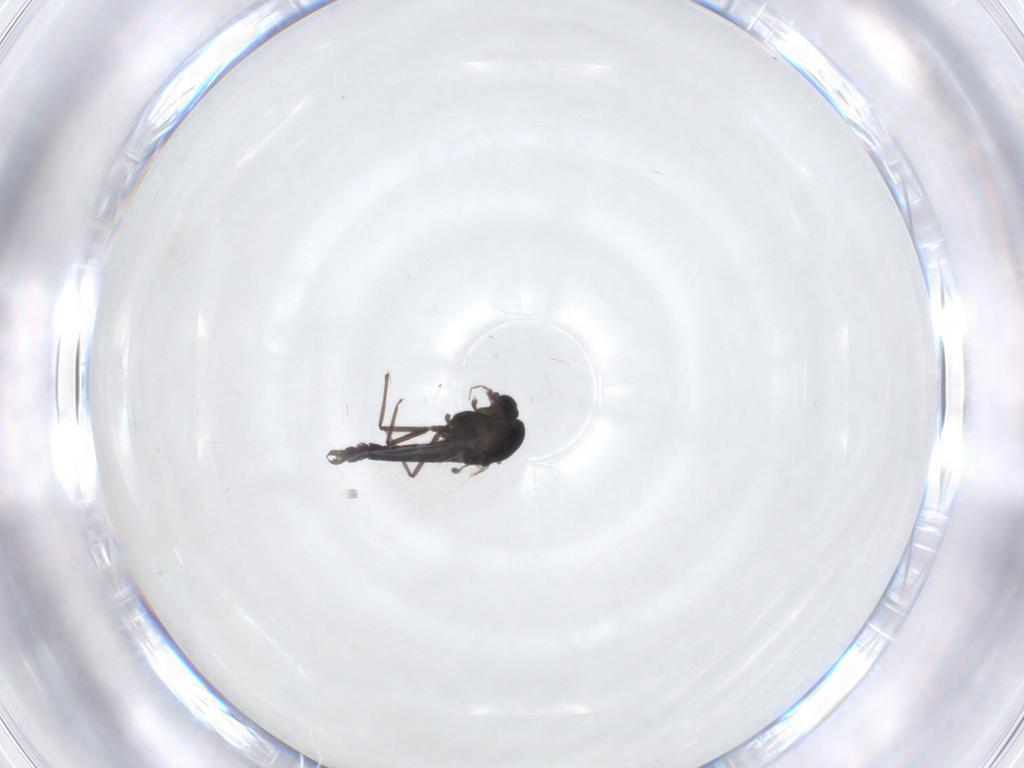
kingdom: Animalia
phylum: Arthropoda
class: Insecta
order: Diptera
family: Chironomidae
